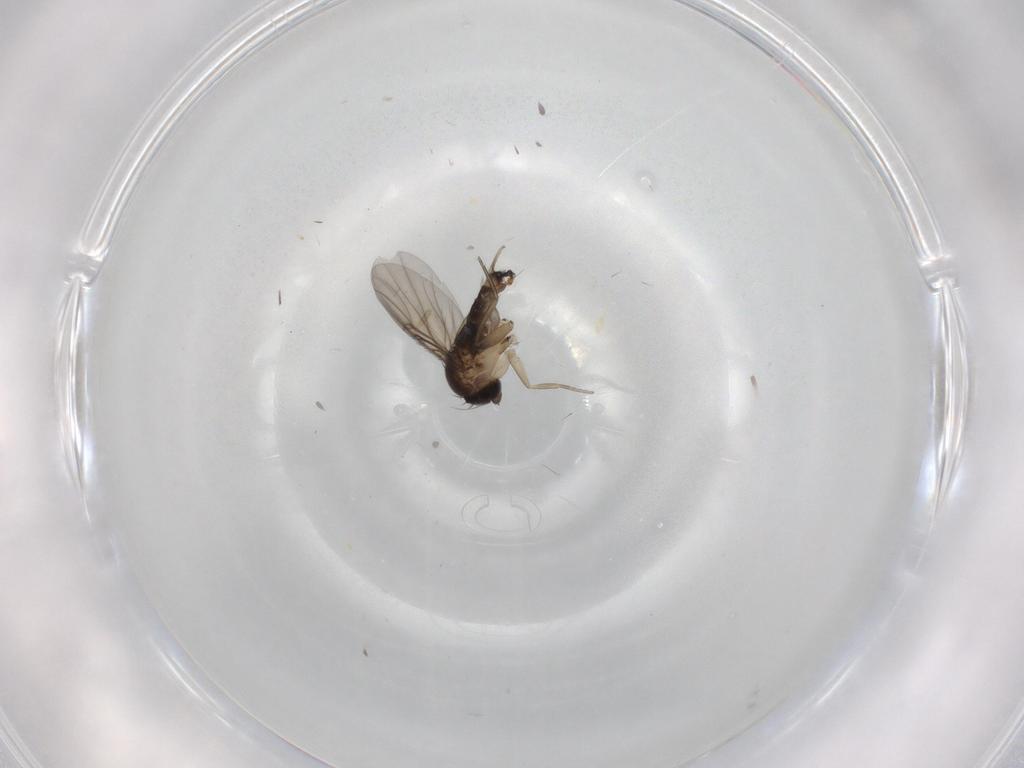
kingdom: Animalia
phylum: Arthropoda
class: Insecta
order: Diptera
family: Phoridae
